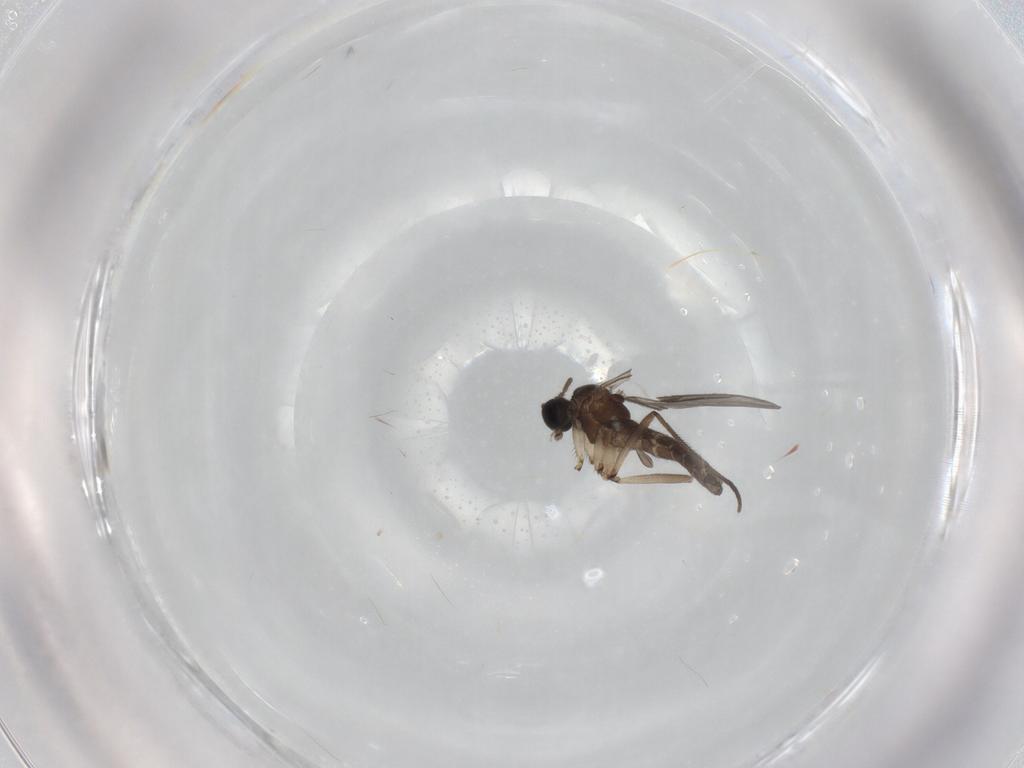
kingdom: Animalia
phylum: Arthropoda
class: Insecta
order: Diptera
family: Sciaridae
